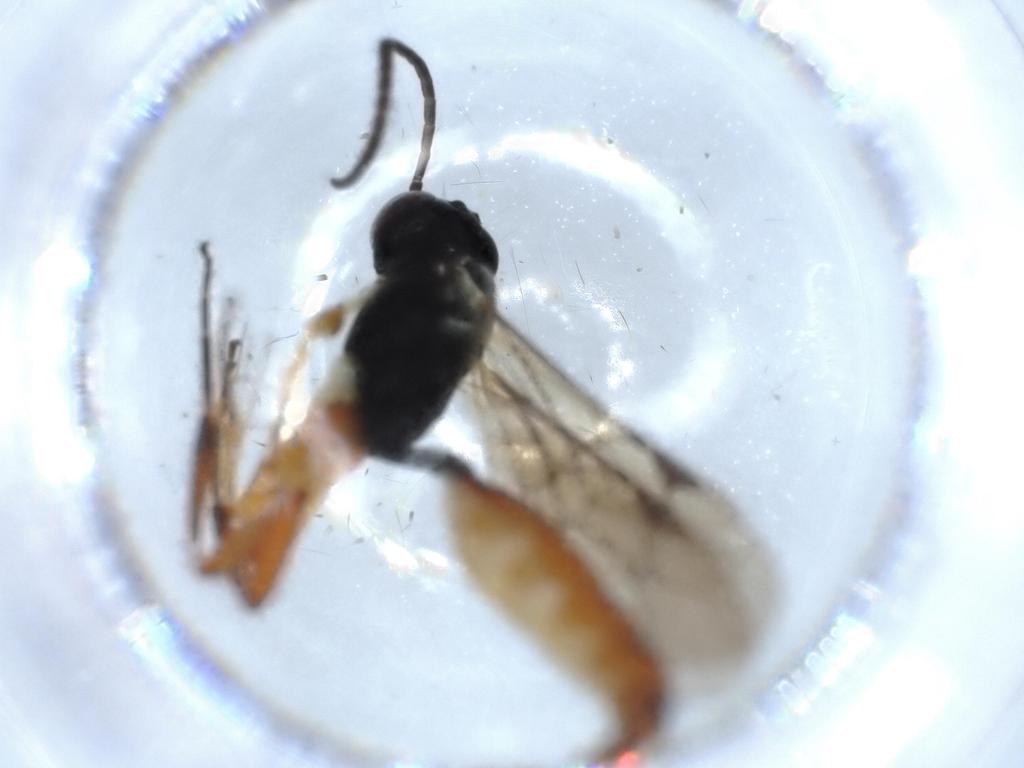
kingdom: Animalia
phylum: Arthropoda
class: Insecta
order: Hymenoptera
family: Ichneumonidae
